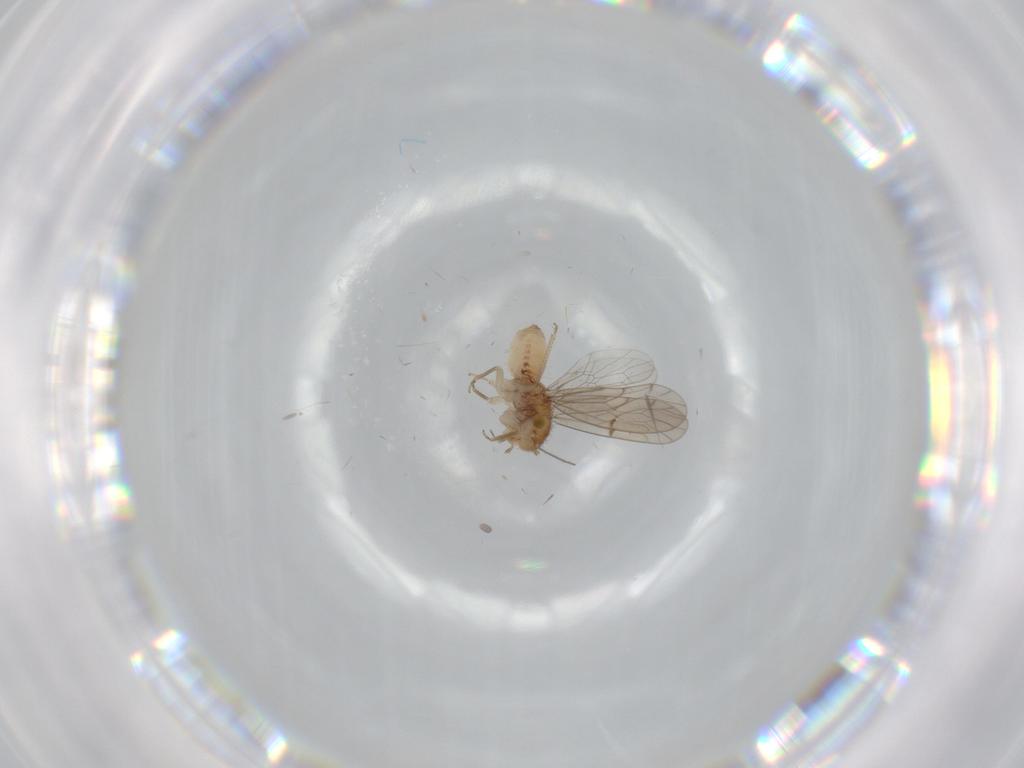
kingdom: Animalia
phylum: Arthropoda
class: Insecta
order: Psocodea
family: Ectopsocidae
